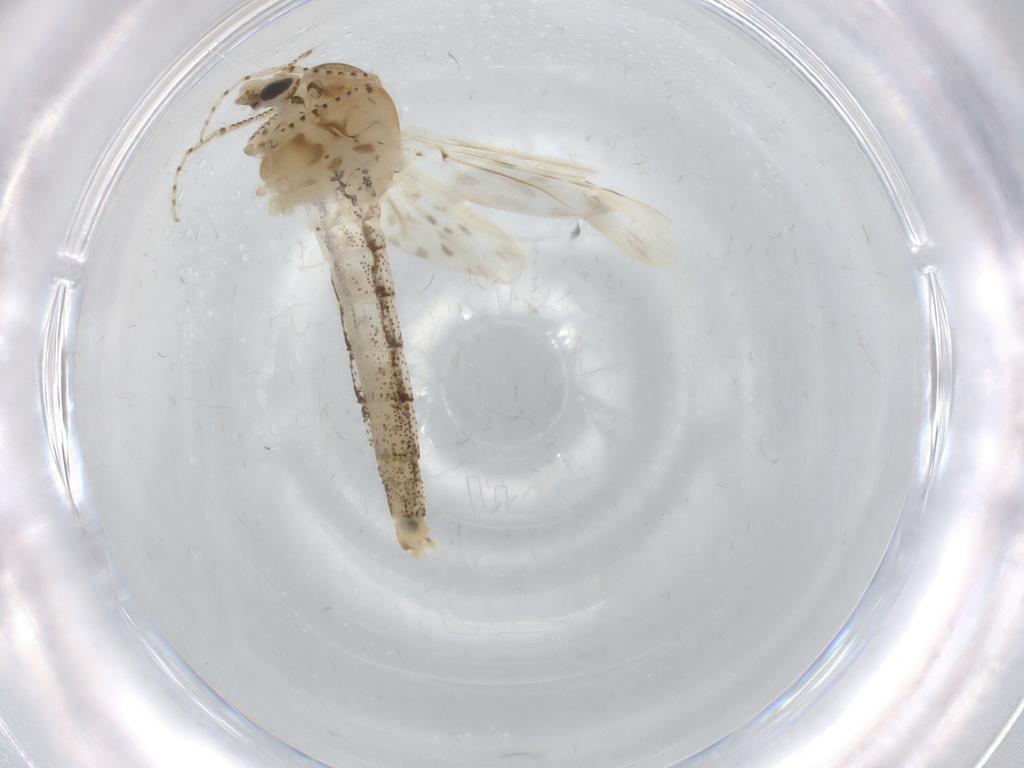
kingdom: Animalia
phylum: Arthropoda
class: Insecta
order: Diptera
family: Chaoboridae
